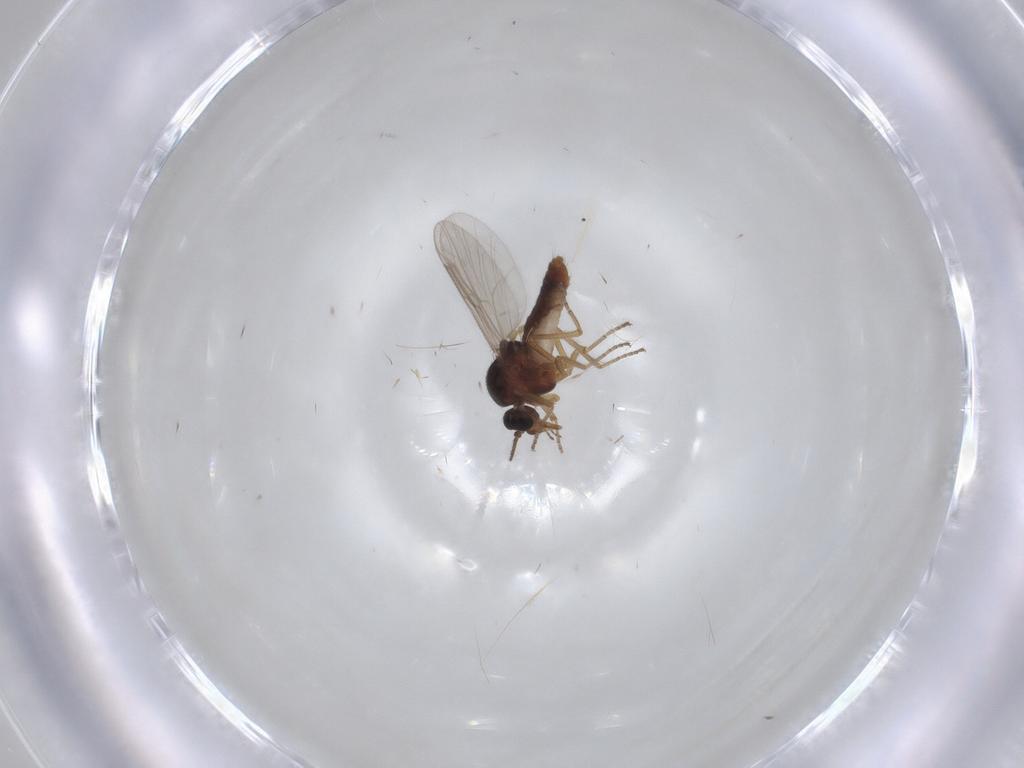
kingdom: Animalia
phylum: Arthropoda
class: Insecta
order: Diptera
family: Ceratopogonidae
